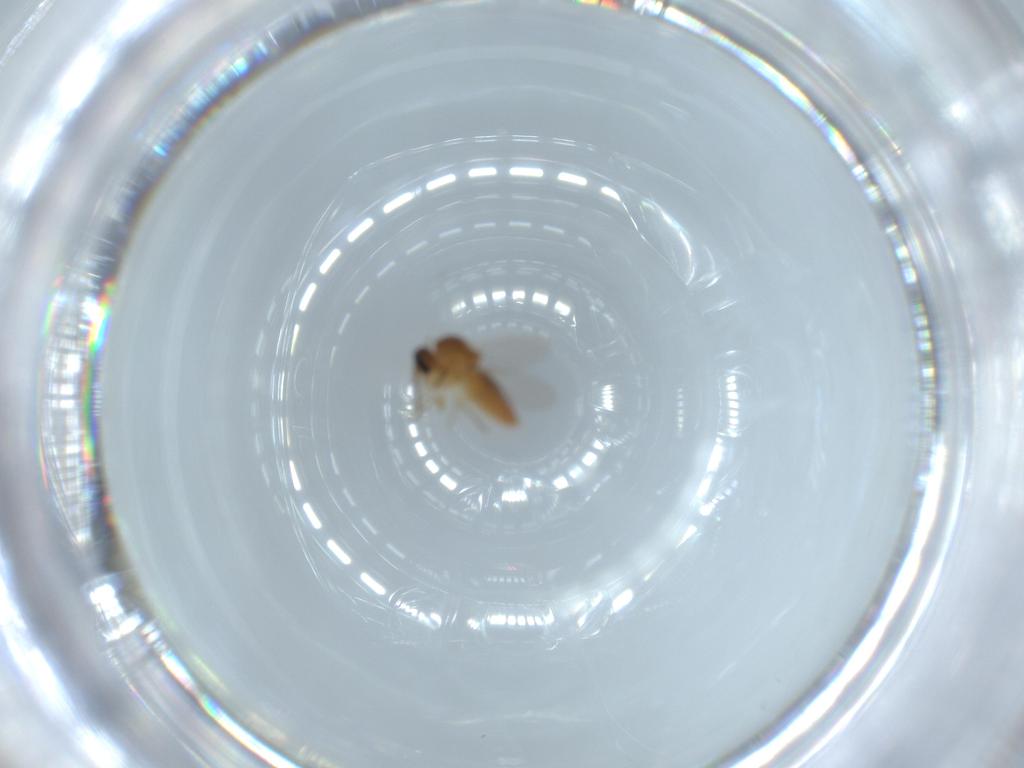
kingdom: Animalia
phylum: Arthropoda
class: Insecta
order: Diptera
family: Ceratopogonidae
